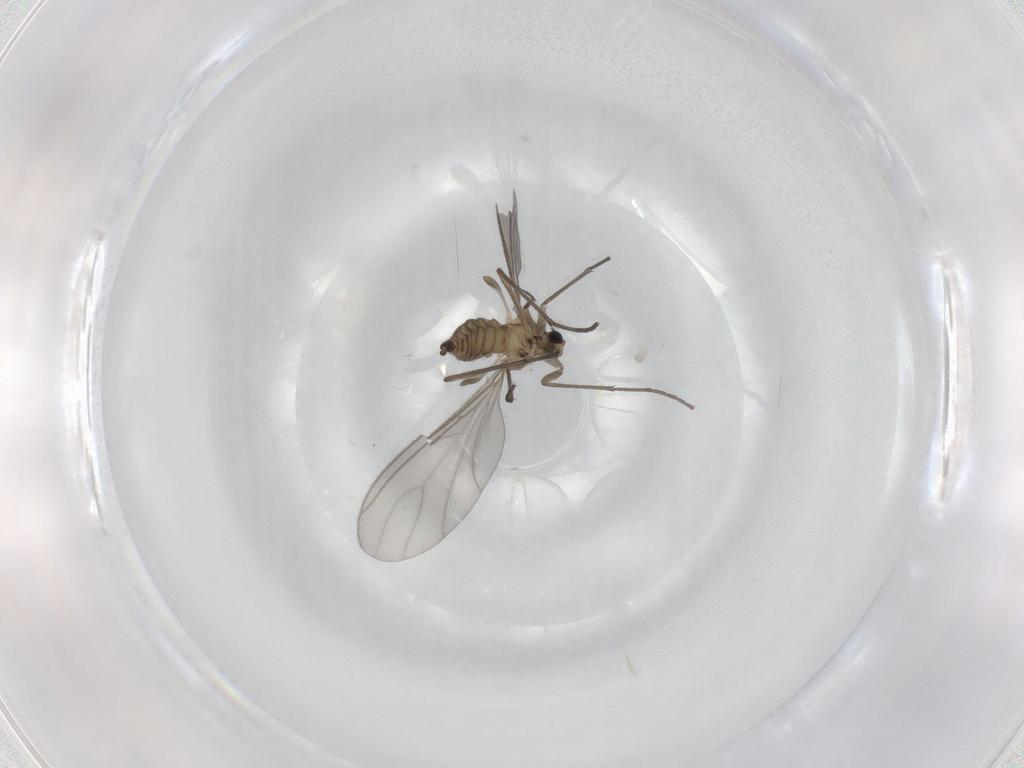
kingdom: Animalia
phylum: Arthropoda
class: Insecta
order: Diptera
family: Sciaridae
